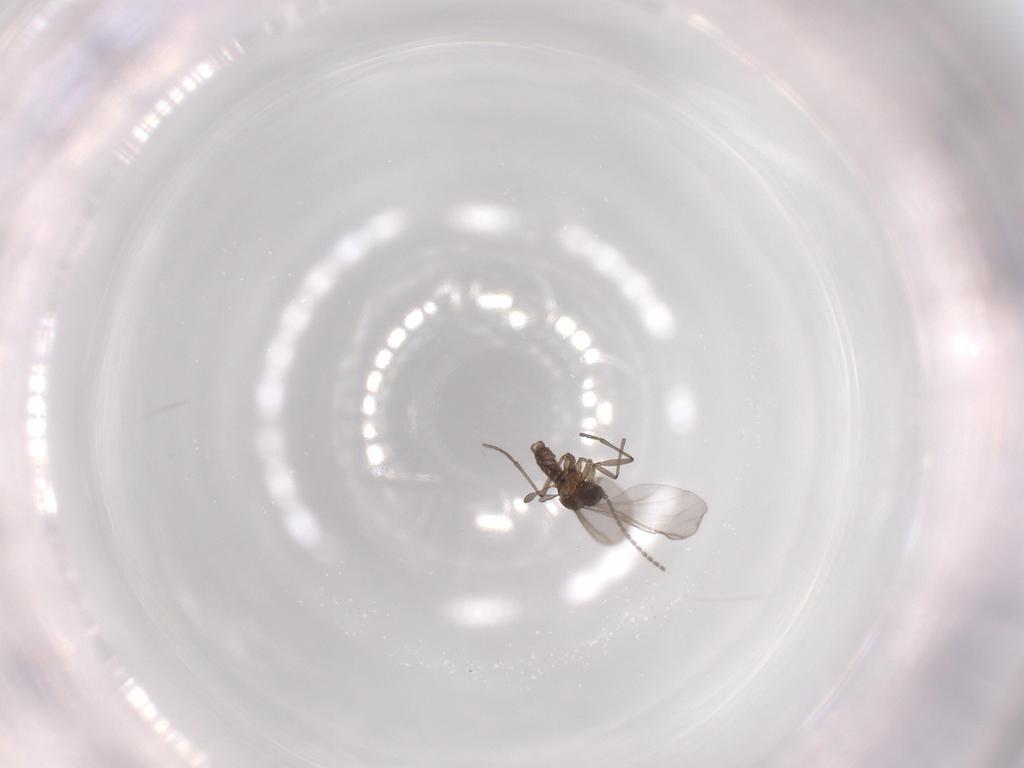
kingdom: Animalia
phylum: Arthropoda
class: Insecta
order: Diptera
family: Sciaridae
